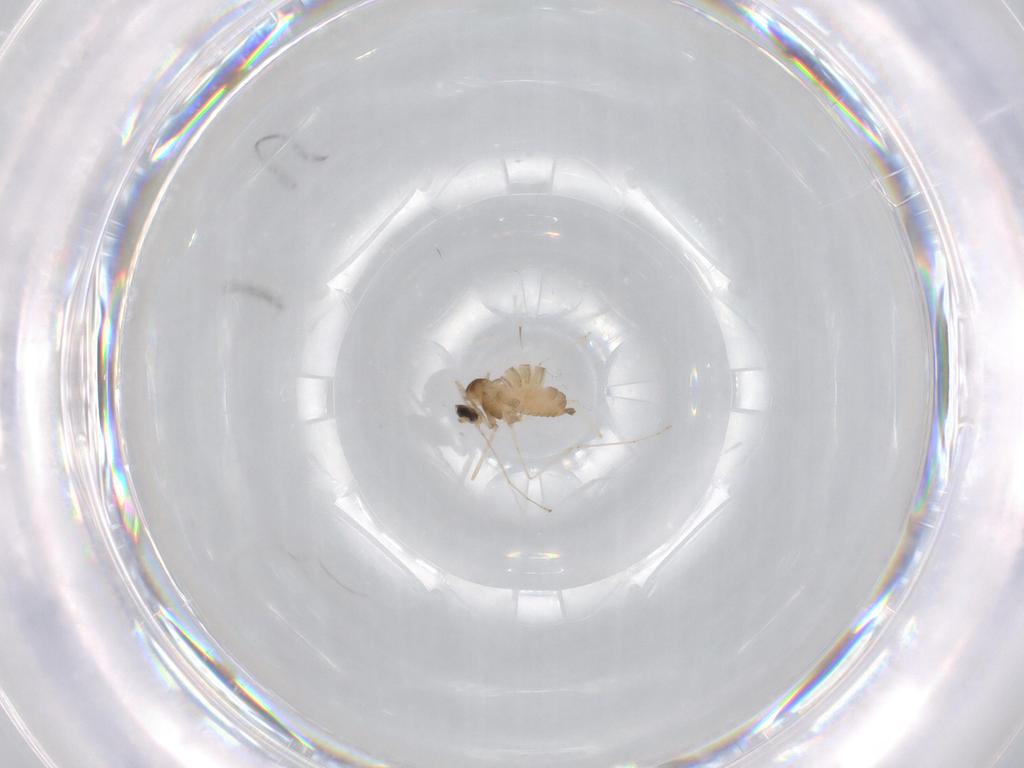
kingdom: Animalia
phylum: Arthropoda
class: Insecta
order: Diptera
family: Cecidomyiidae
